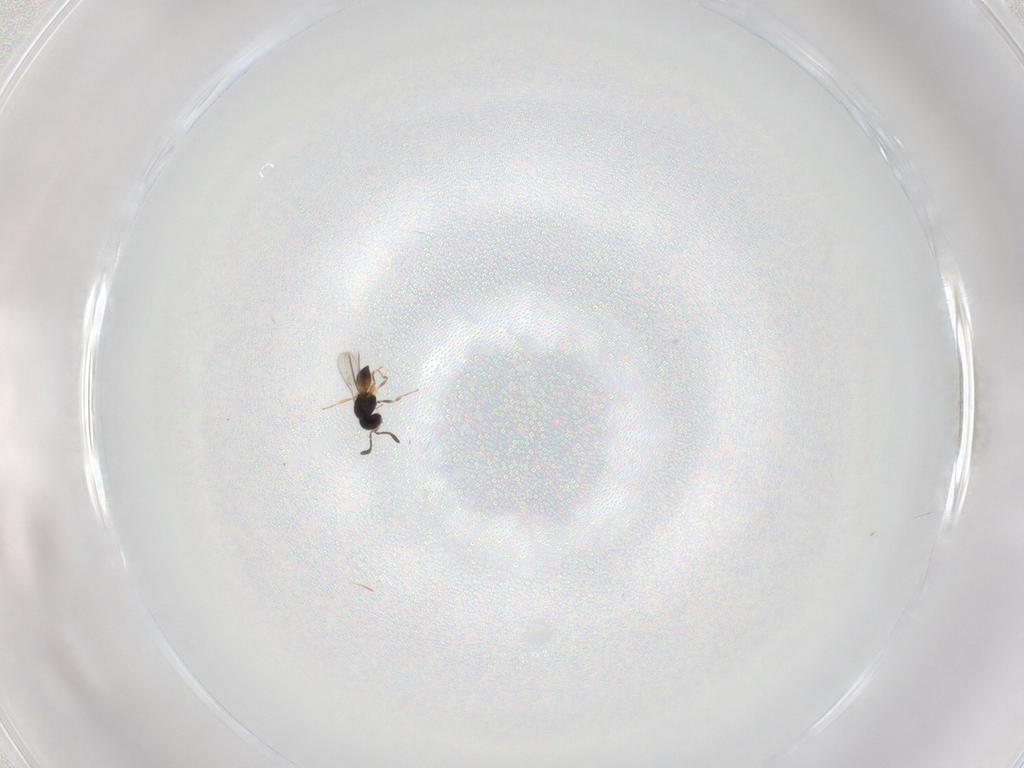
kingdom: Animalia
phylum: Arthropoda
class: Insecta
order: Hymenoptera
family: Scelionidae
